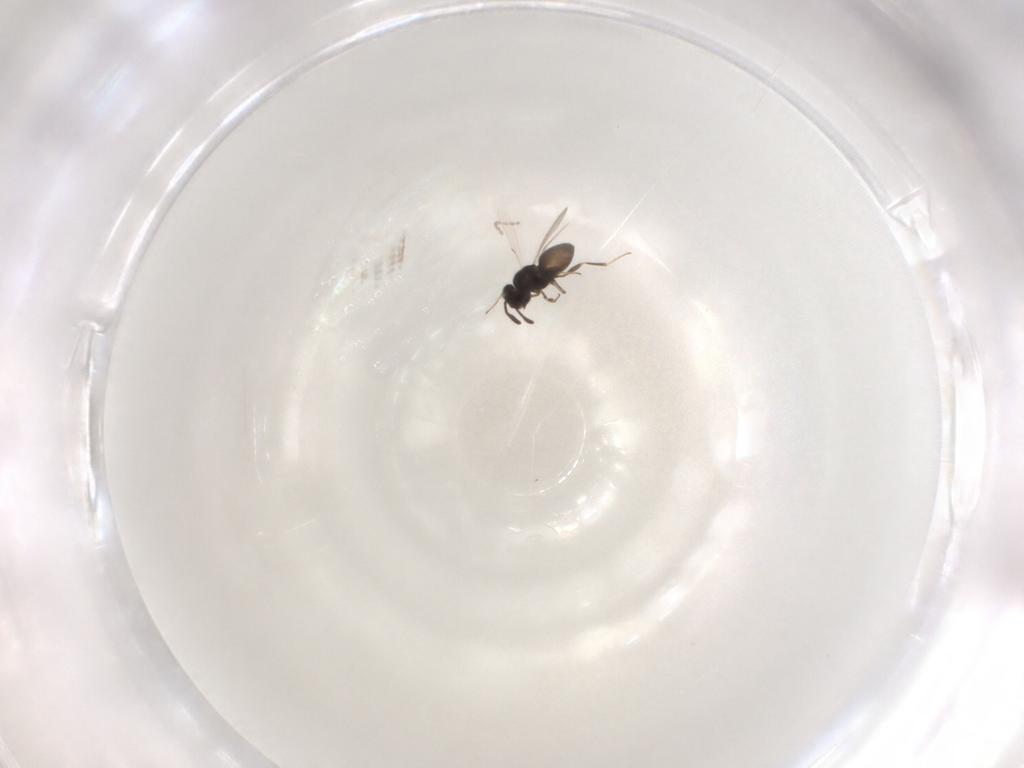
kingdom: Animalia
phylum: Arthropoda
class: Insecta
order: Hymenoptera
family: Scelionidae
